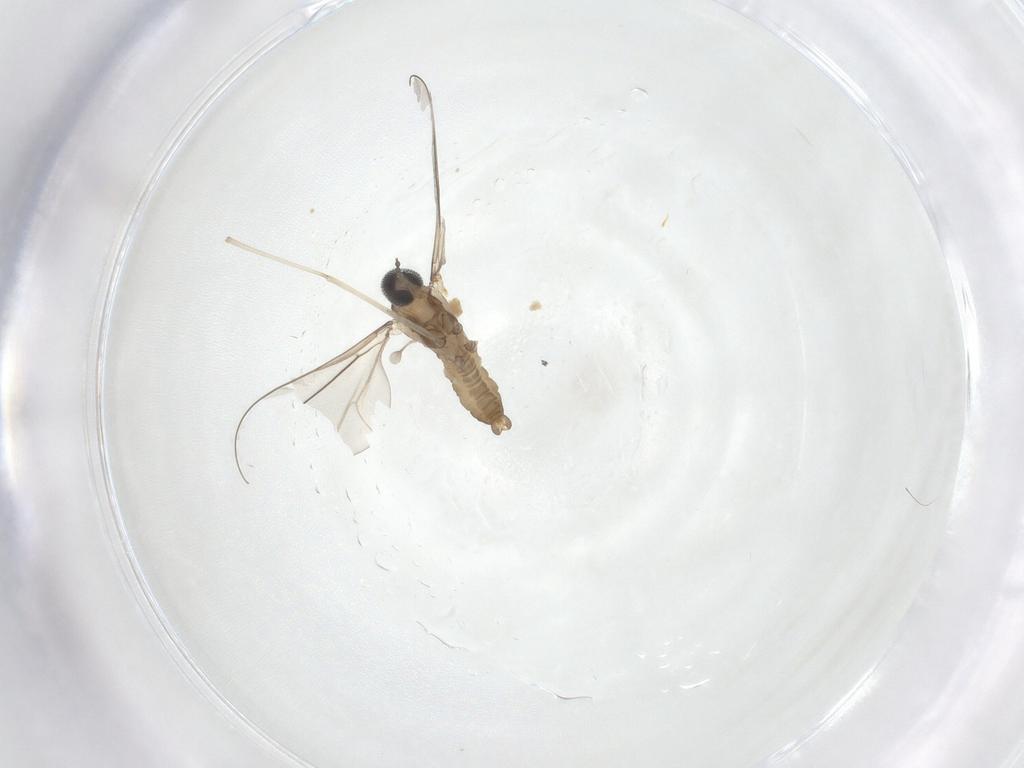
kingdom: Animalia
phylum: Arthropoda
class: Insecta
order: Diptera
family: Cecidomyiidae
